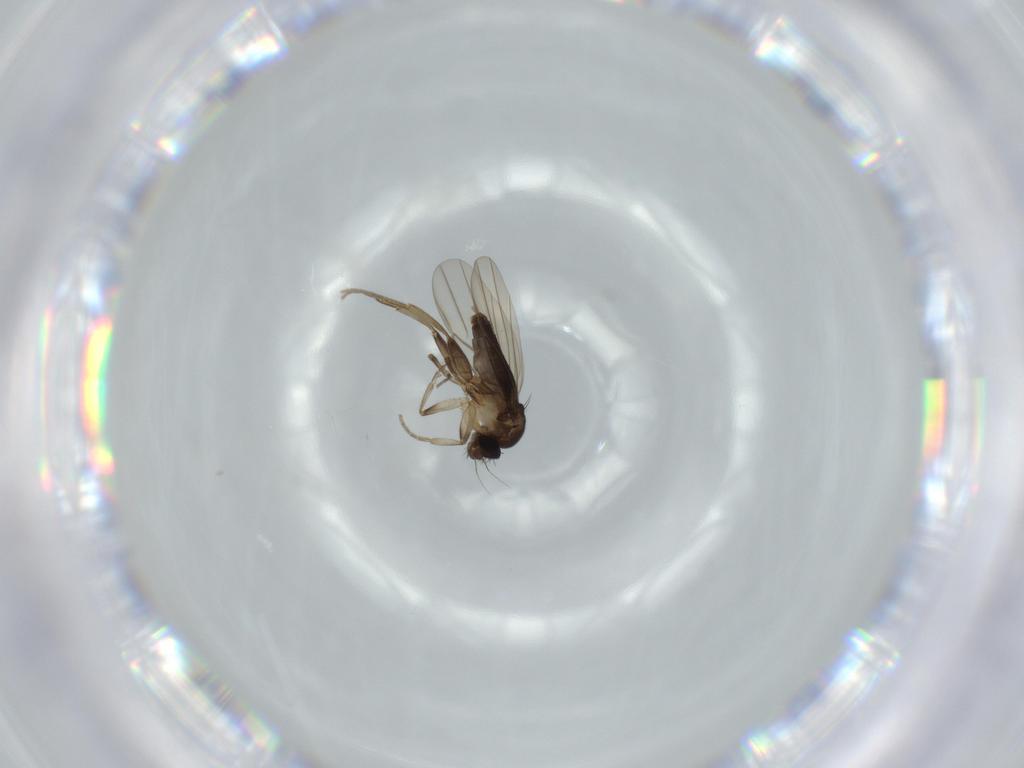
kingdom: Animalia
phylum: Arthropoda
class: Insecta
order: Diptera
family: Phoridae
